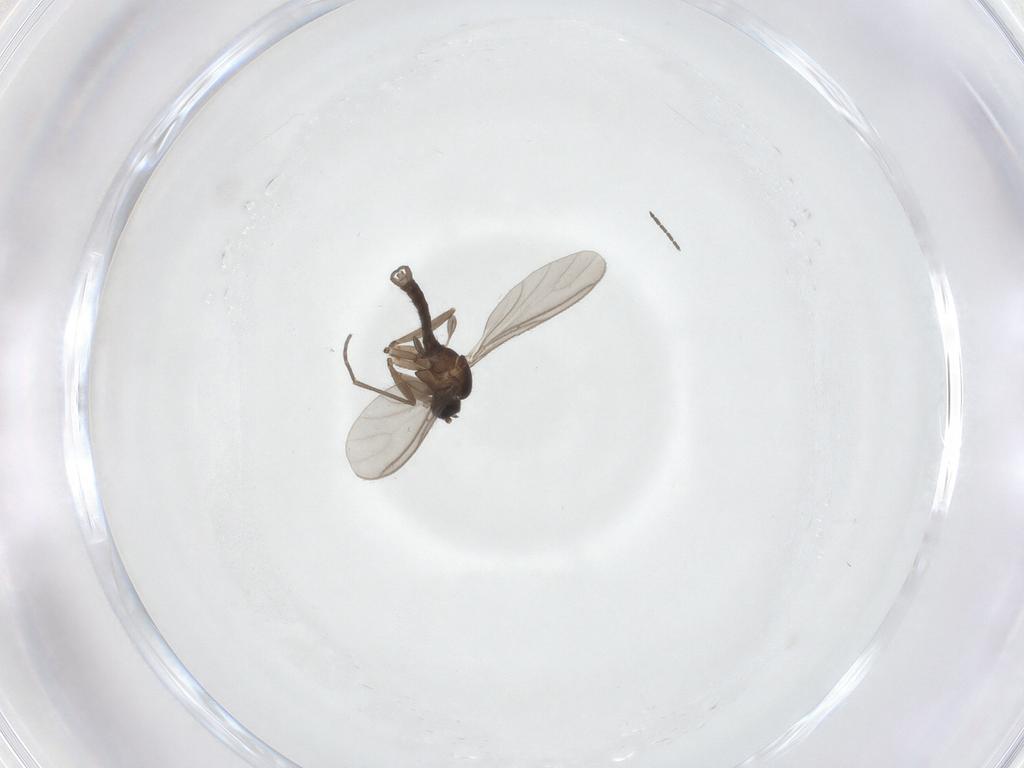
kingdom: Animalia
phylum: Arthropoda
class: Insecta
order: Diptera
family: Sciaridae
